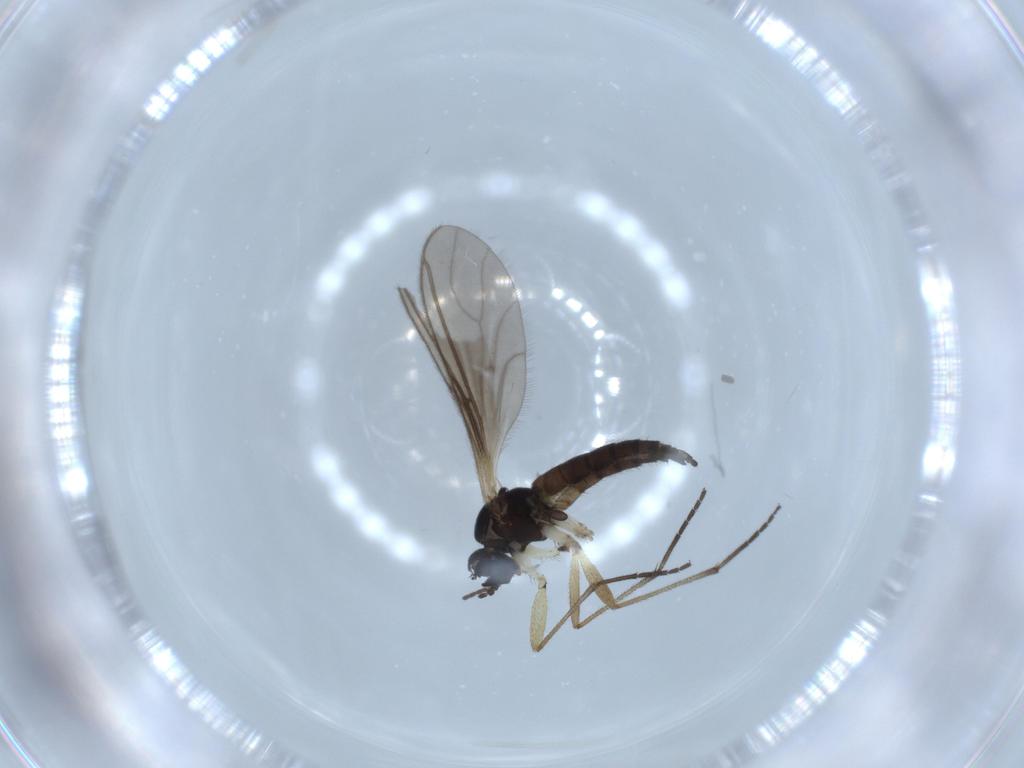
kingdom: Animalia
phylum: Arthropoda
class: Insecta
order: Diptera
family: Sciaridae
